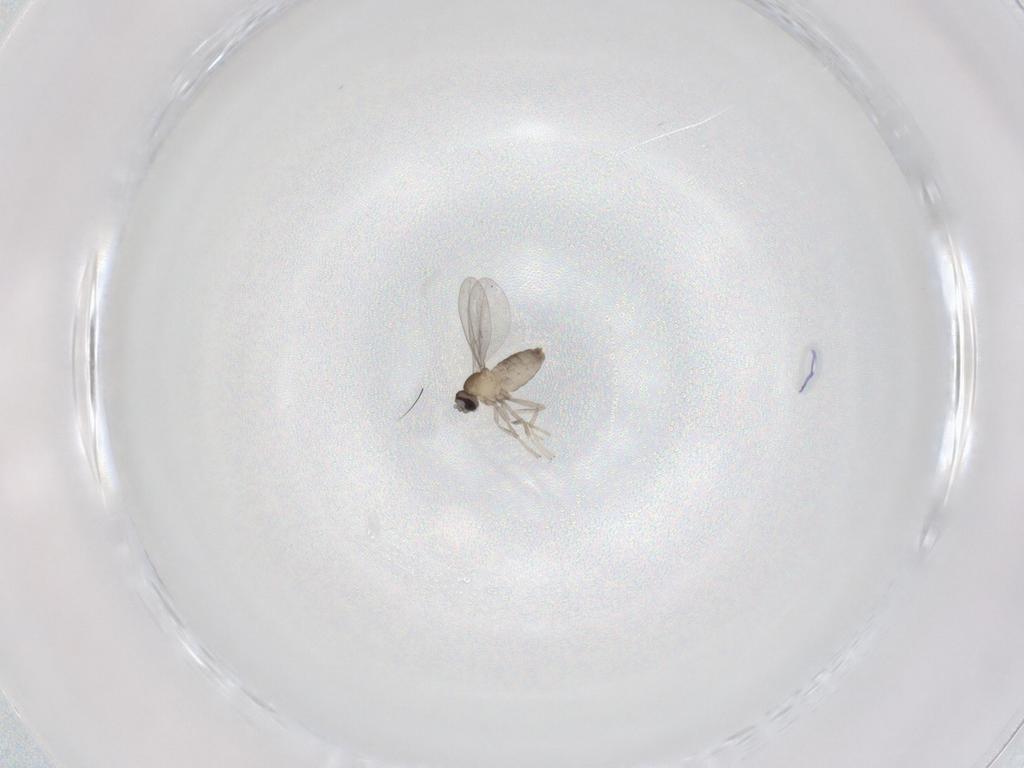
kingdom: Animalia
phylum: Arthropoda
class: Insecta
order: Diptera
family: Cecidomyiidae
